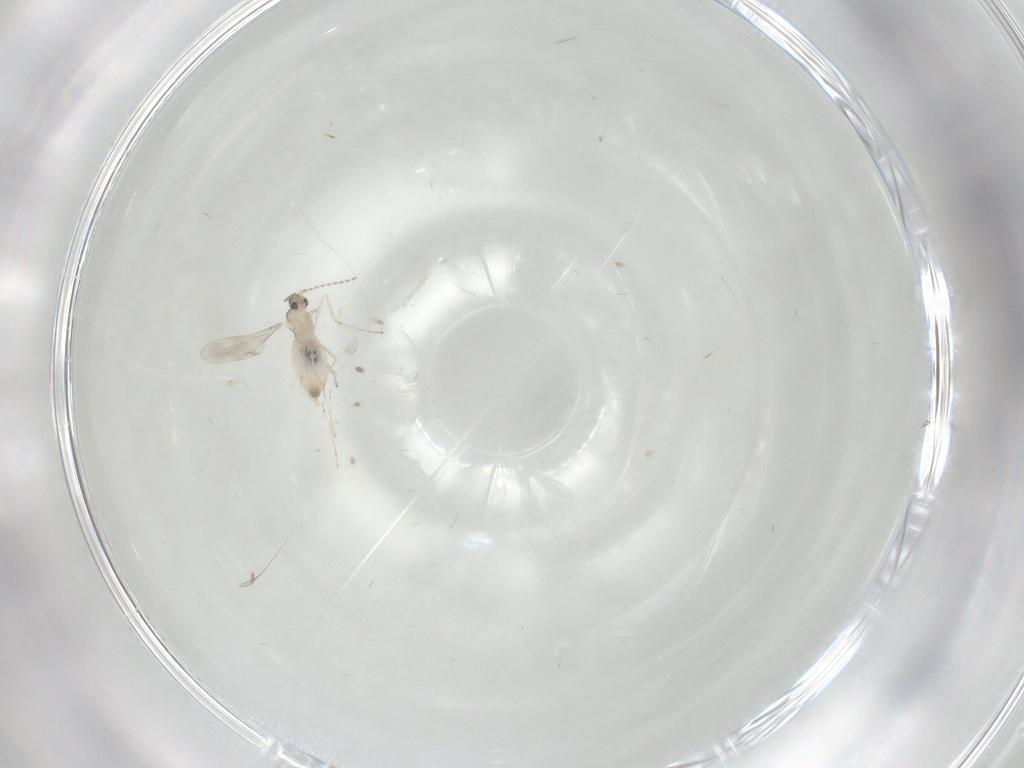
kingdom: Animalia
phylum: Arthropoda
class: Insecta
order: Diptera
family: Cecidomyiidae
